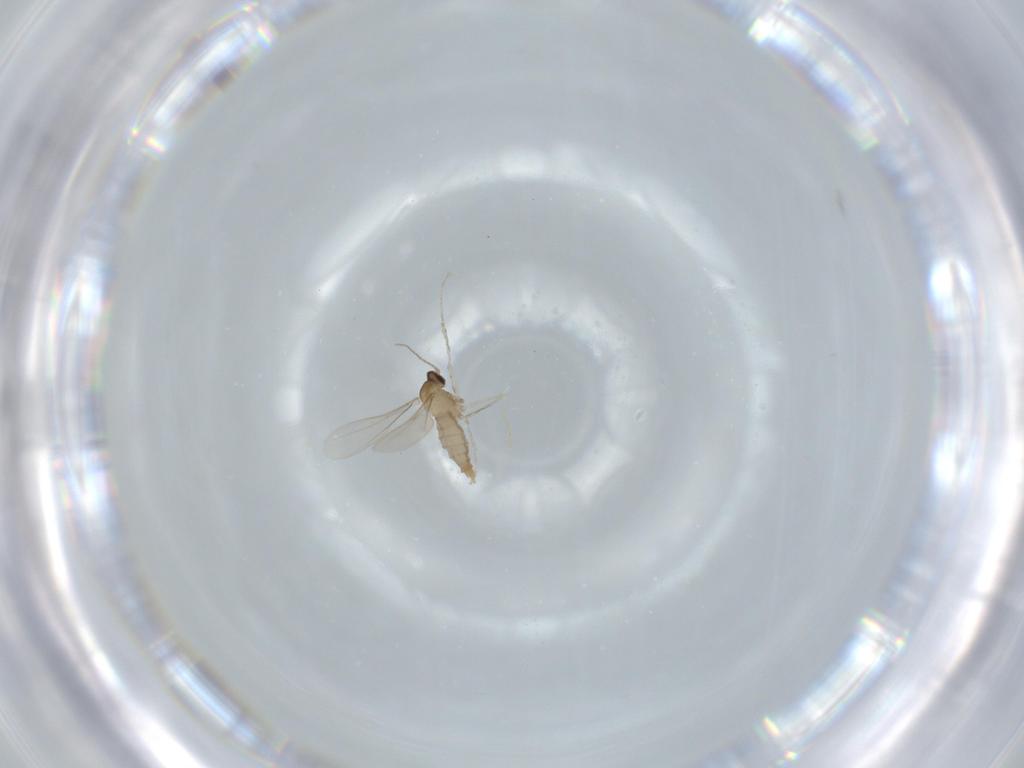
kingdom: Animalia
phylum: Arthropoda
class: Insecta
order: Diptera
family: Cecidomyiidae
